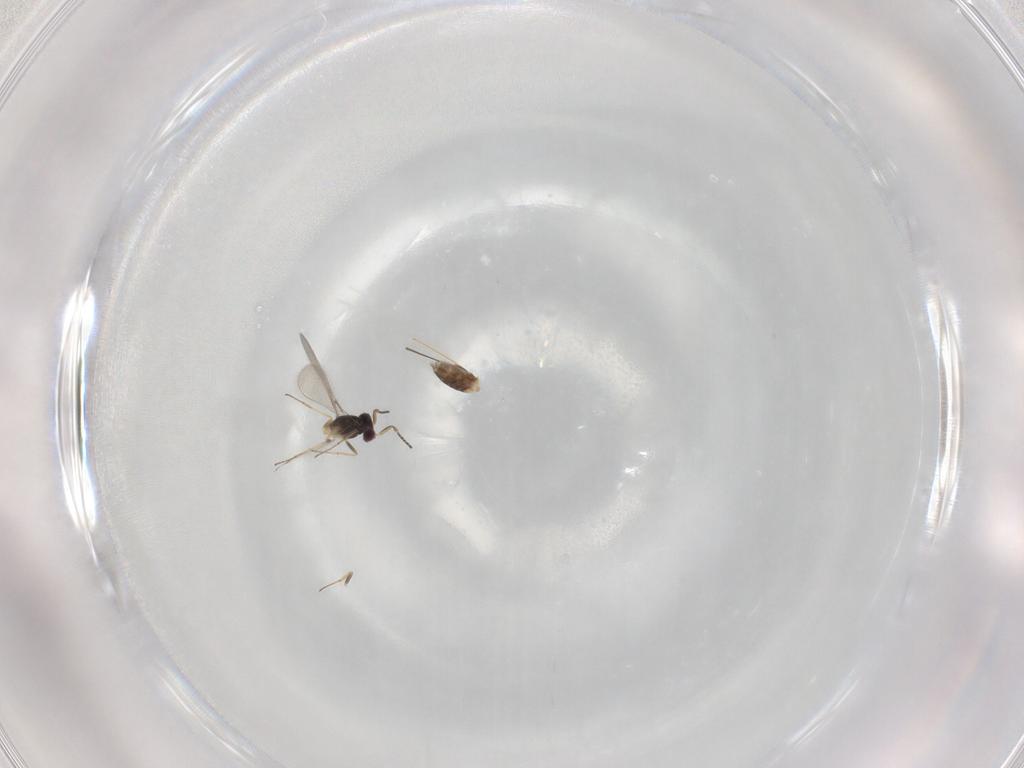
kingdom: Animalia
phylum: Arthropoda
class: Insecta
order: Hymenoptera
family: Mymaridae
